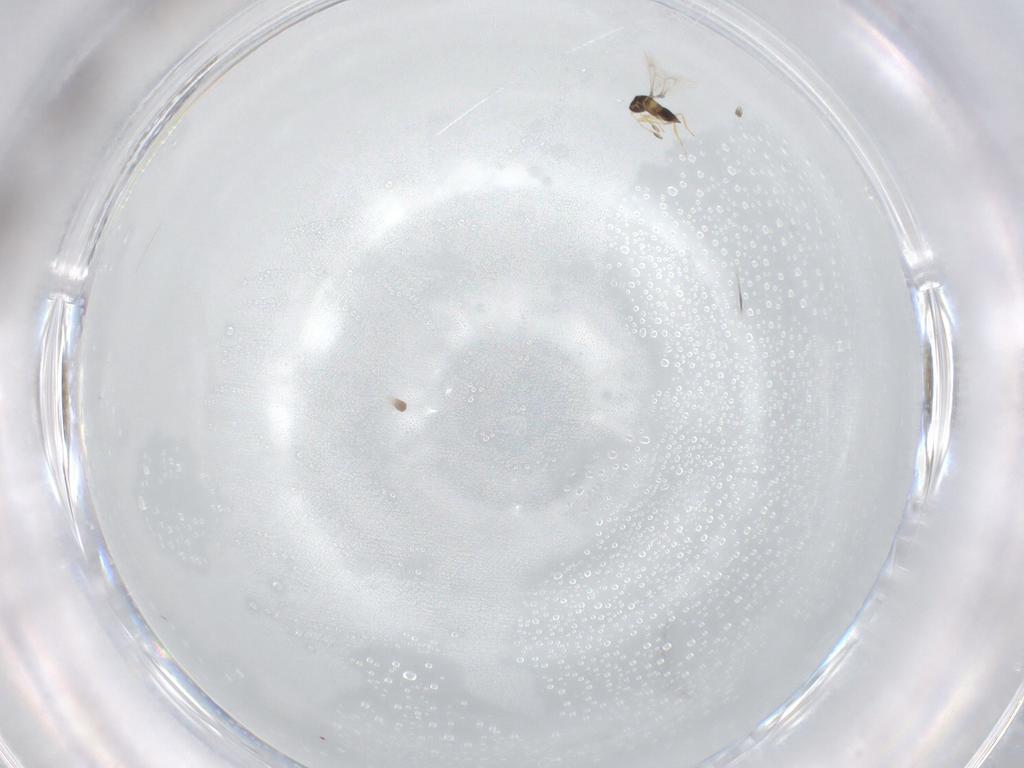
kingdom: Animalia
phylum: Arthropoda
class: Insecta
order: Hymenoptera
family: Mymaridae
